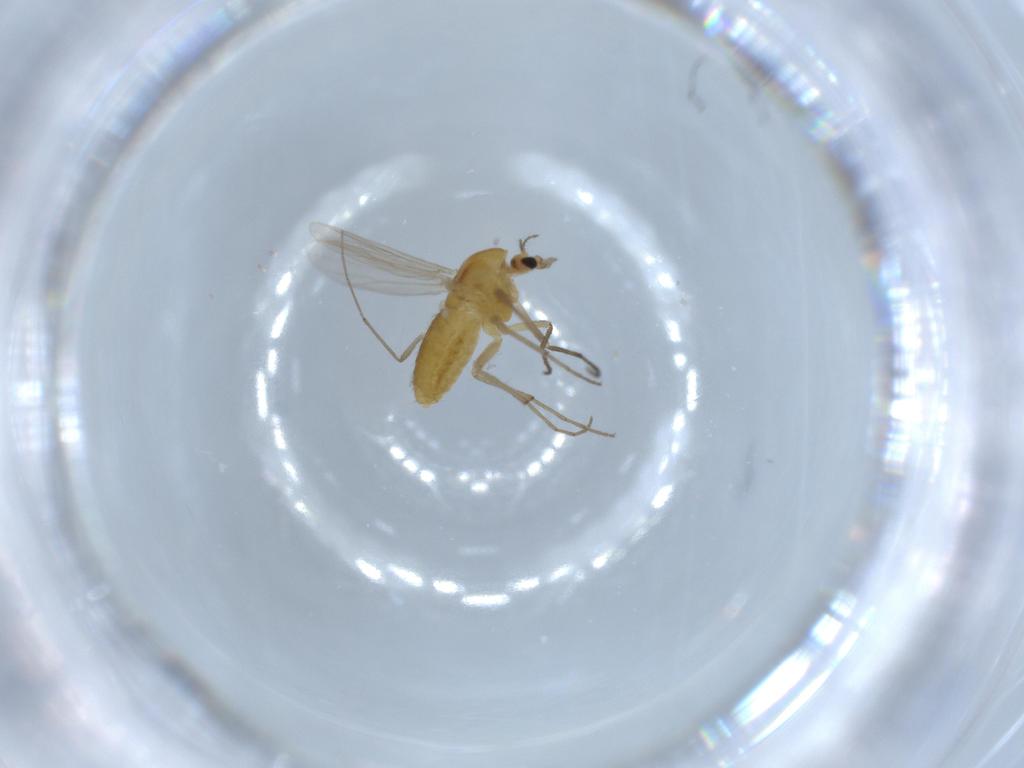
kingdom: Animalia
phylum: Arthropoda
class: Insecta
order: Diptera
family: Chironomidae
